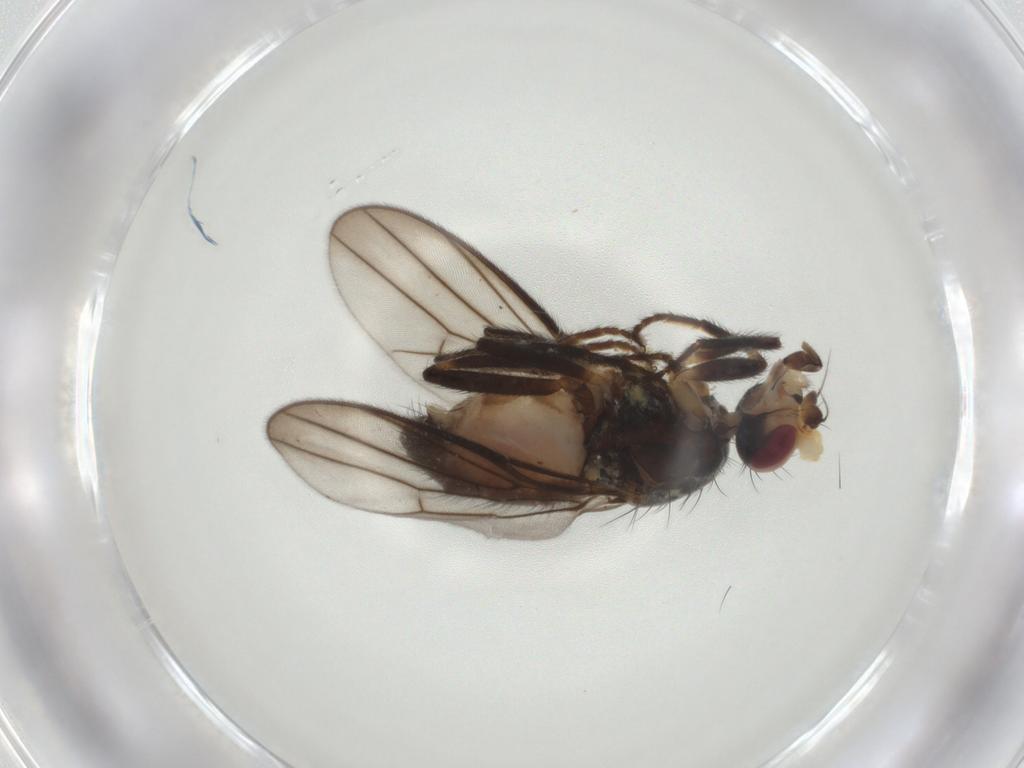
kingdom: Animalia
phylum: Arthropoda
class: Insecta
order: Diptera
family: Chloropidae
